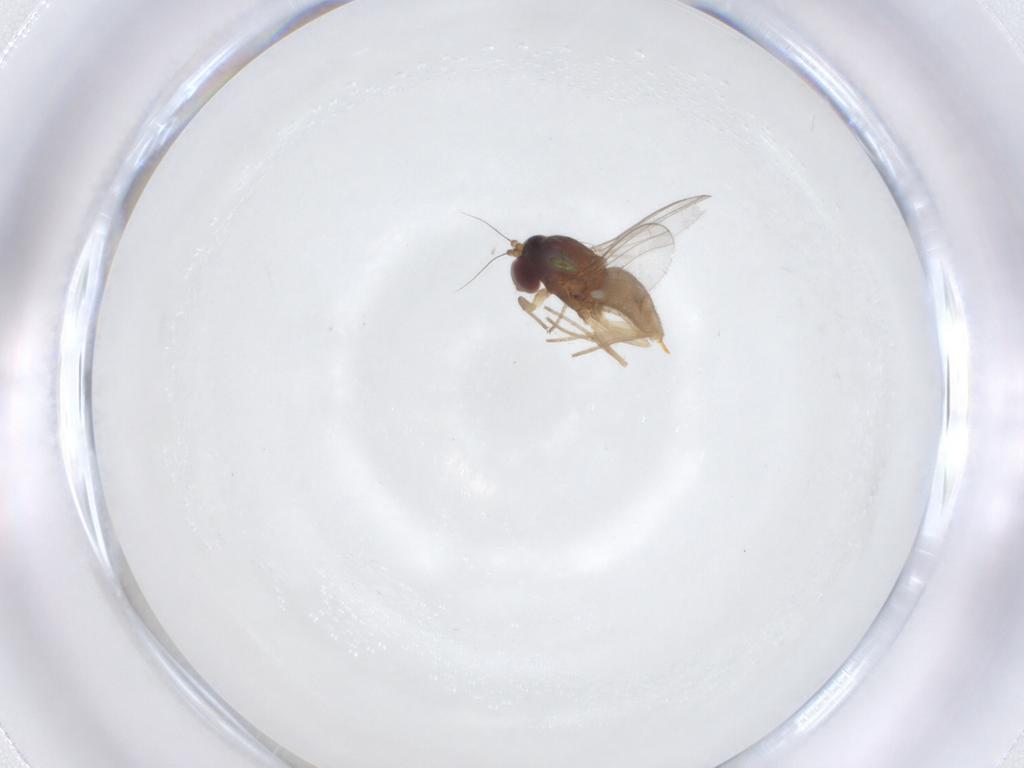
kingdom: Animalia
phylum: Arthropoda
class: Insecta
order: Diptera
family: Dolichopodidae
